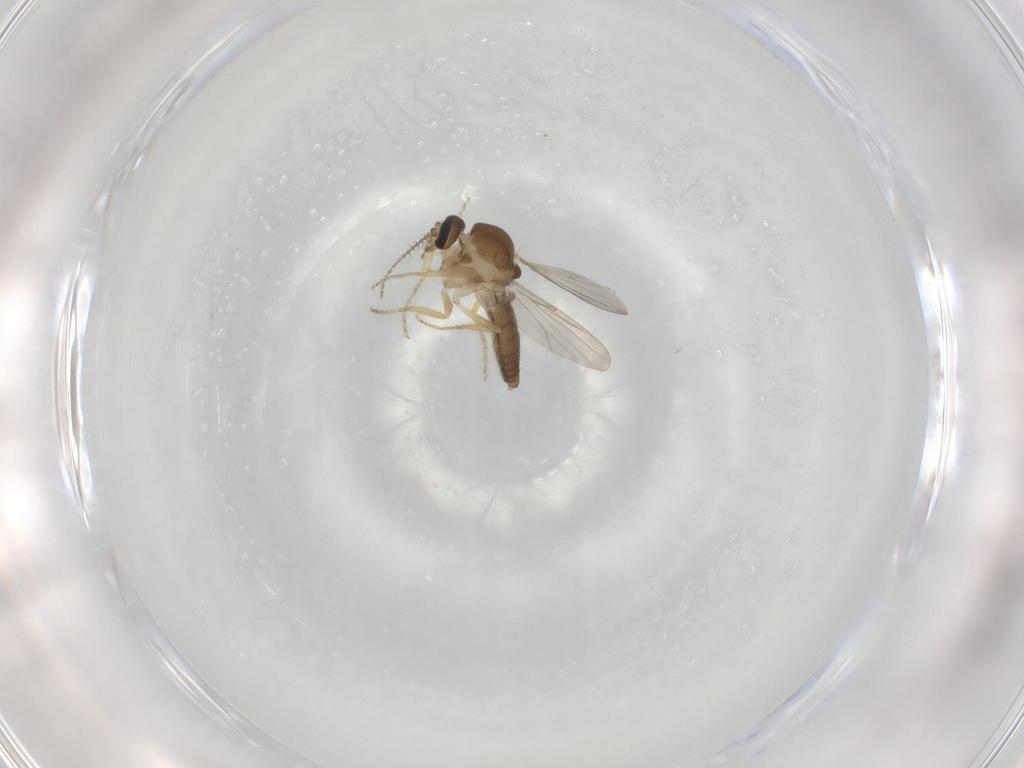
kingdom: Animalia
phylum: Arthropoda
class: Insecta
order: Diptera
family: Ceratopogonidae
